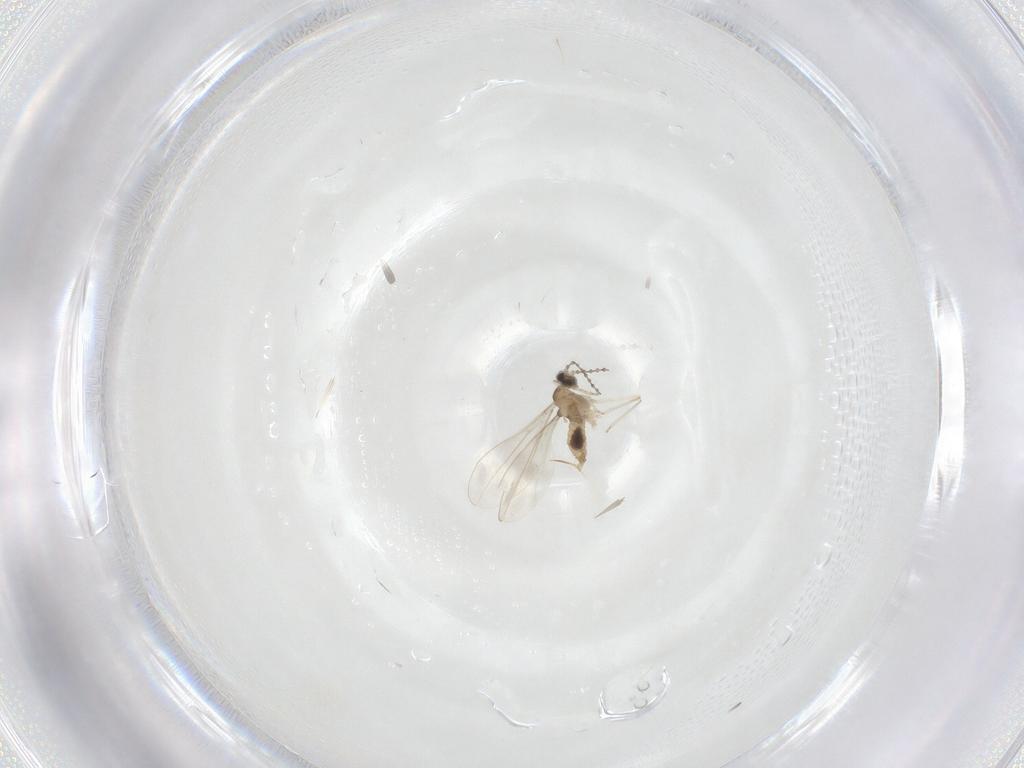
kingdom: Animalia
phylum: Arthropoda
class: Insecta
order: Diptera
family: Cecidomyiidae
